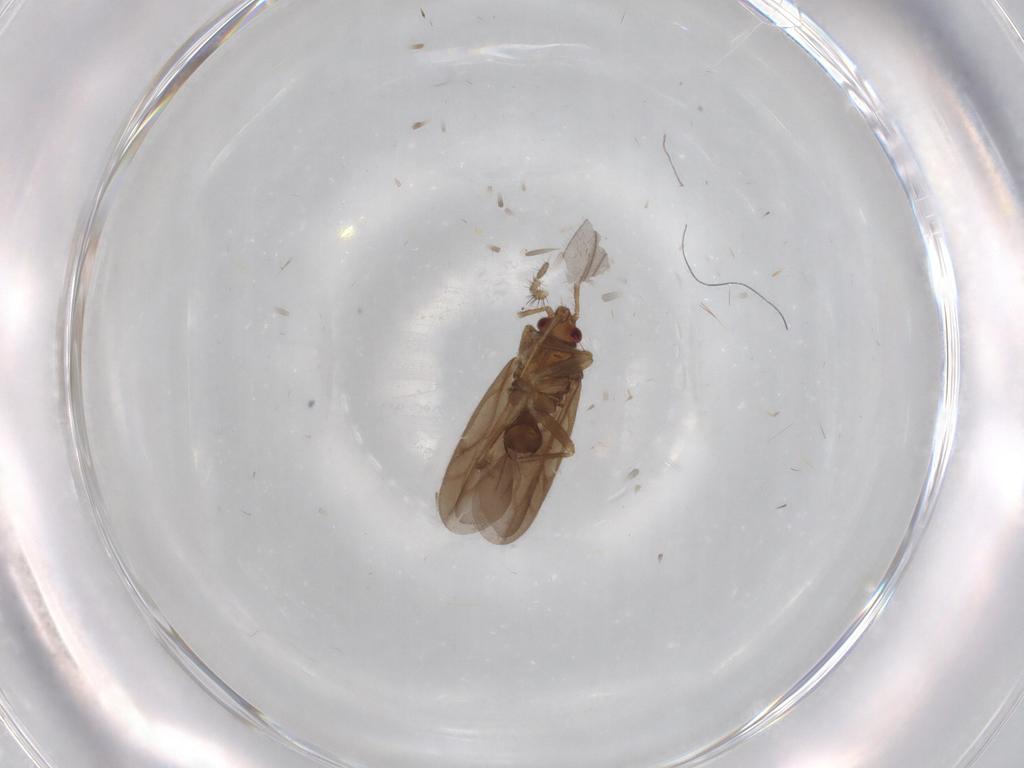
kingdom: Animalia
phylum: Arthropoda
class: Insecta
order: Hemiptera
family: Ceratocombidae
